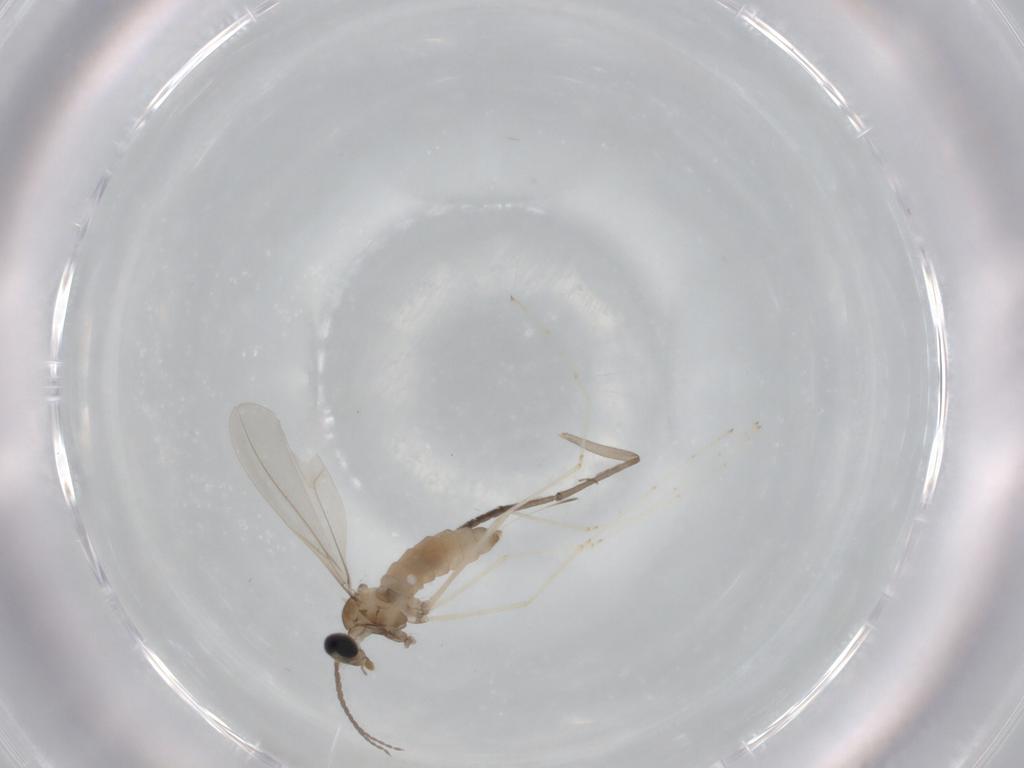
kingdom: Animalia
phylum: Arthropoda
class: Insecta
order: Diptera
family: Cecidomyiidae
